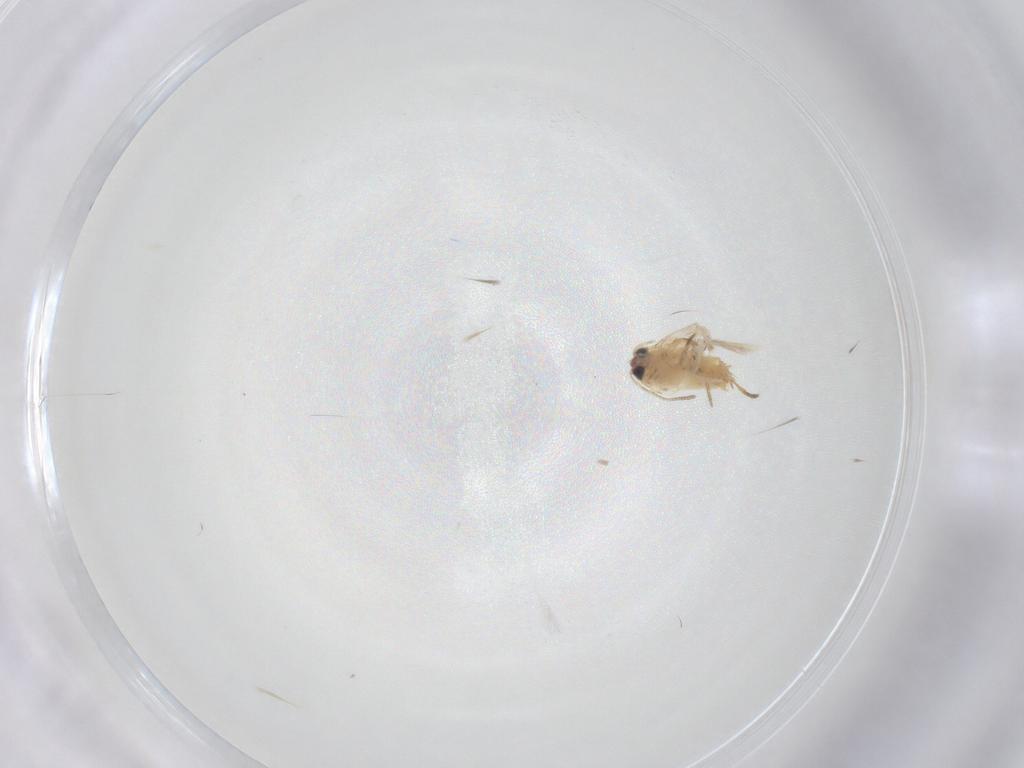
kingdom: Animalia
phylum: Arthropoda
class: Insecta
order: Lepidoptera
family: Crambidae
